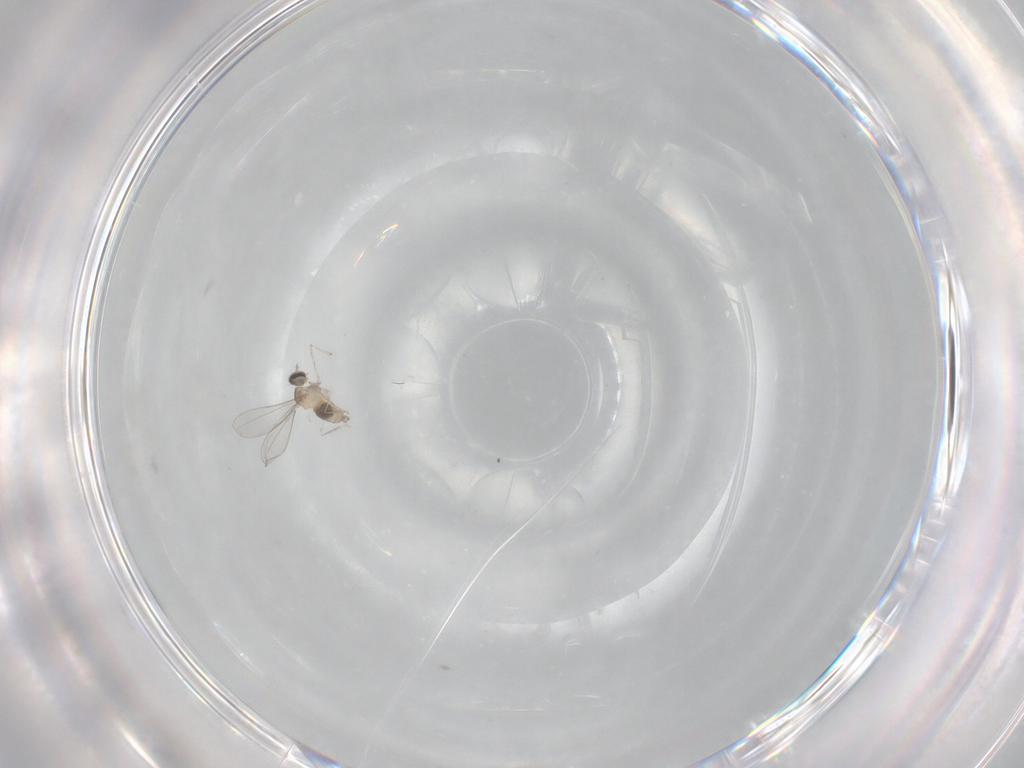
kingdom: Animalia
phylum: Arthropoda
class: Insecta
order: Diptera
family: Cecidomyiidae
